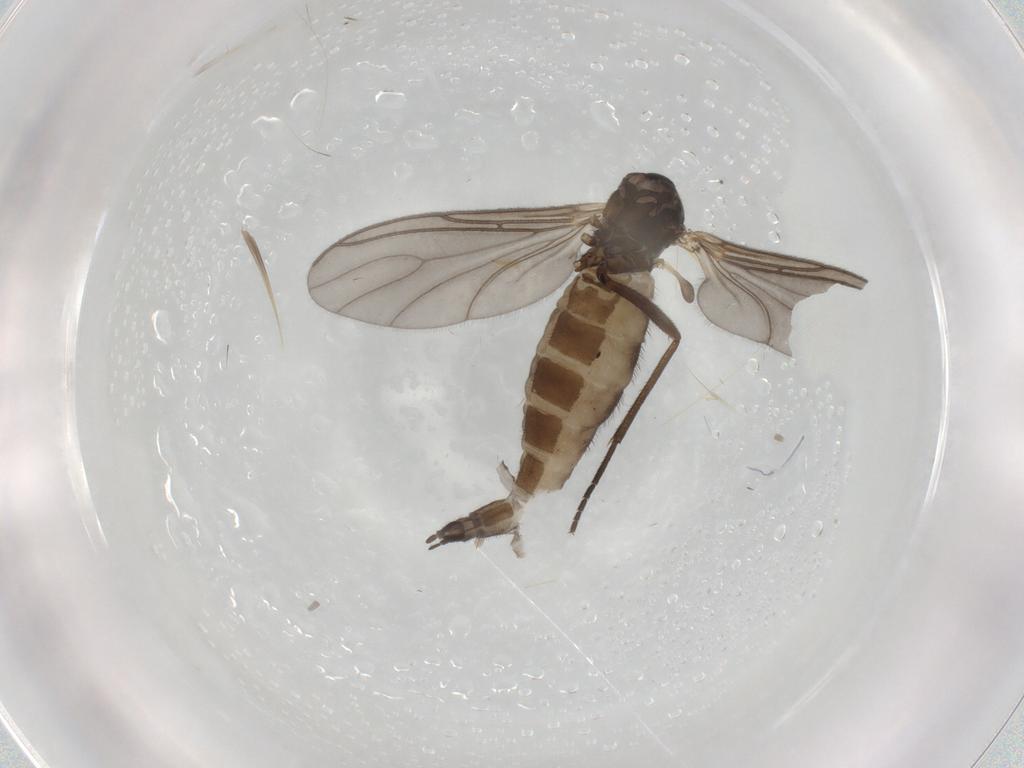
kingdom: Animalia
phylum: Arthropoda
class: Insecta
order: Diptera
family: Sciaridae
